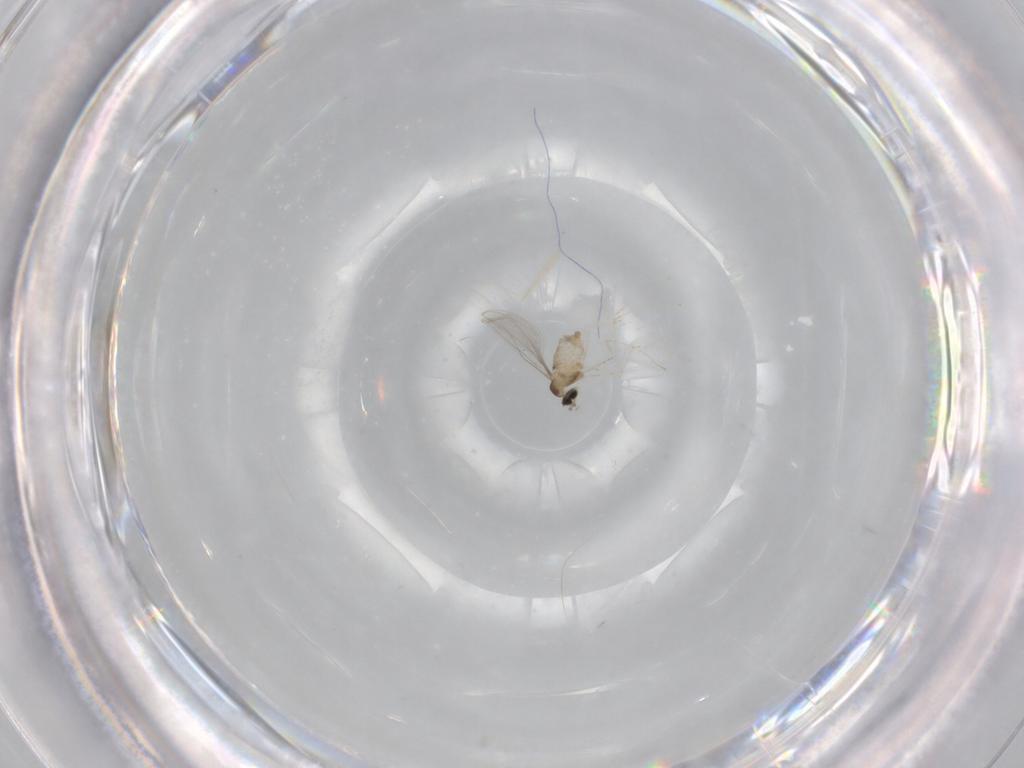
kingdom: Animalia
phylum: Arthropoda
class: Insecta
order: Diptera
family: Cecidomyiidae
